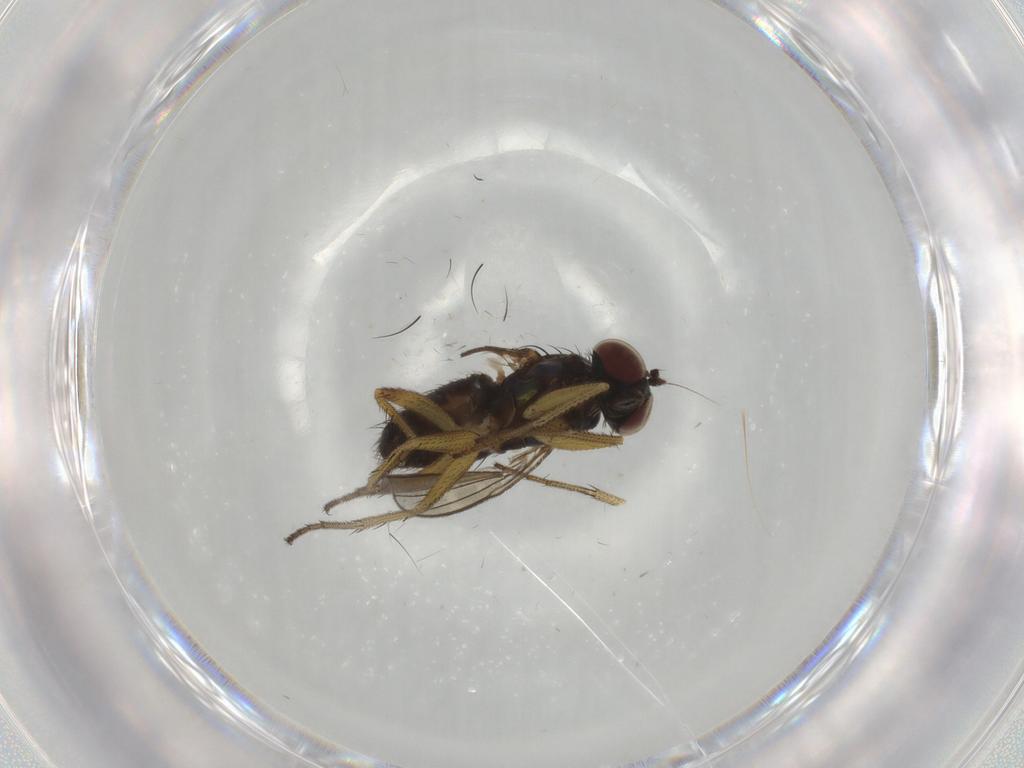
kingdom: Animalia
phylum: Arthropoda
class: Insecta
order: Diptera
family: Dolichopodidae
